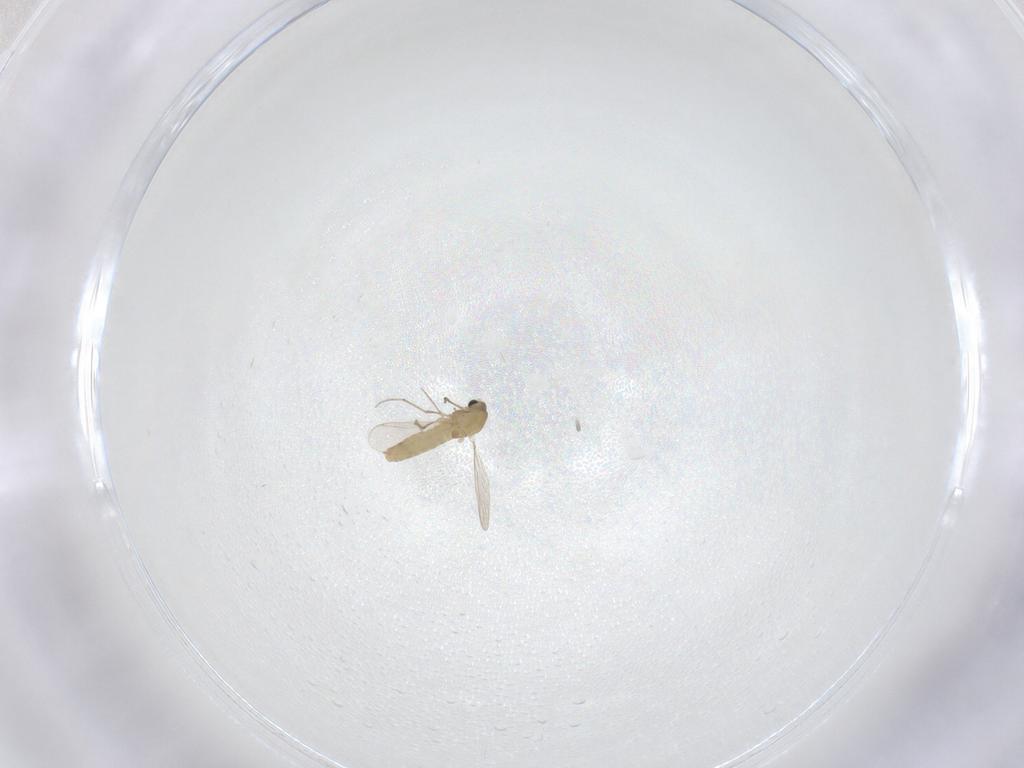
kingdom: Animalia
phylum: Arthropoda
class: Insecta
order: Diptera
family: Chironomidae
